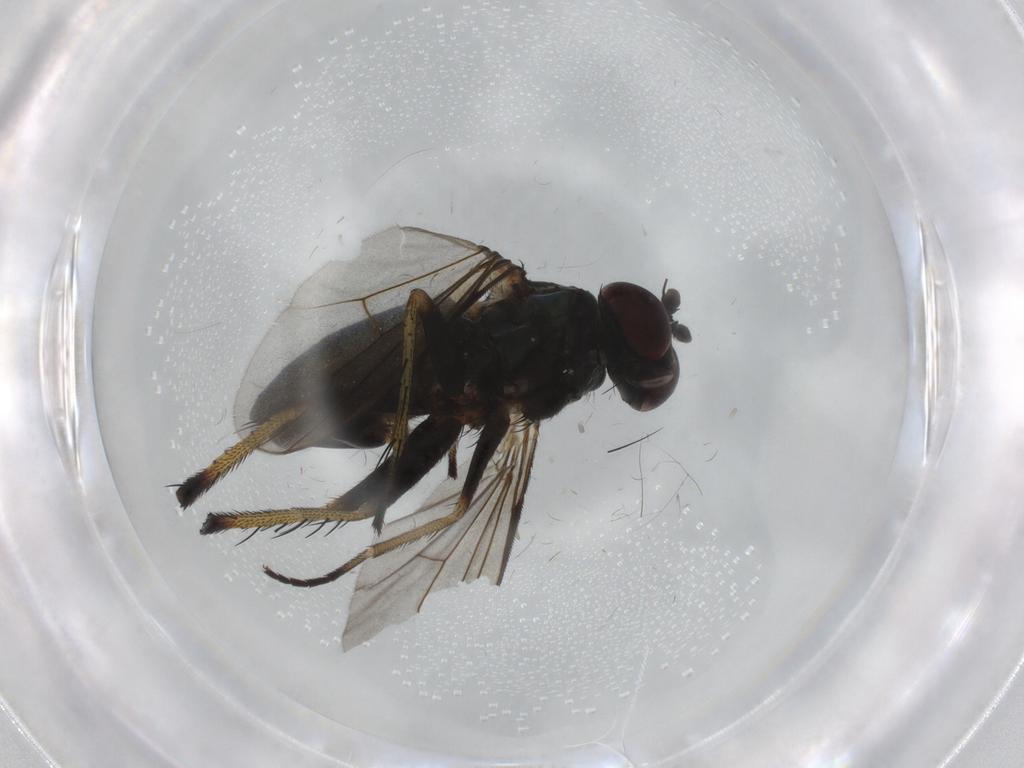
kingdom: Animalia
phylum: Arthropoda
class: Insecta
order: Diptera
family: Dolichopodidae
